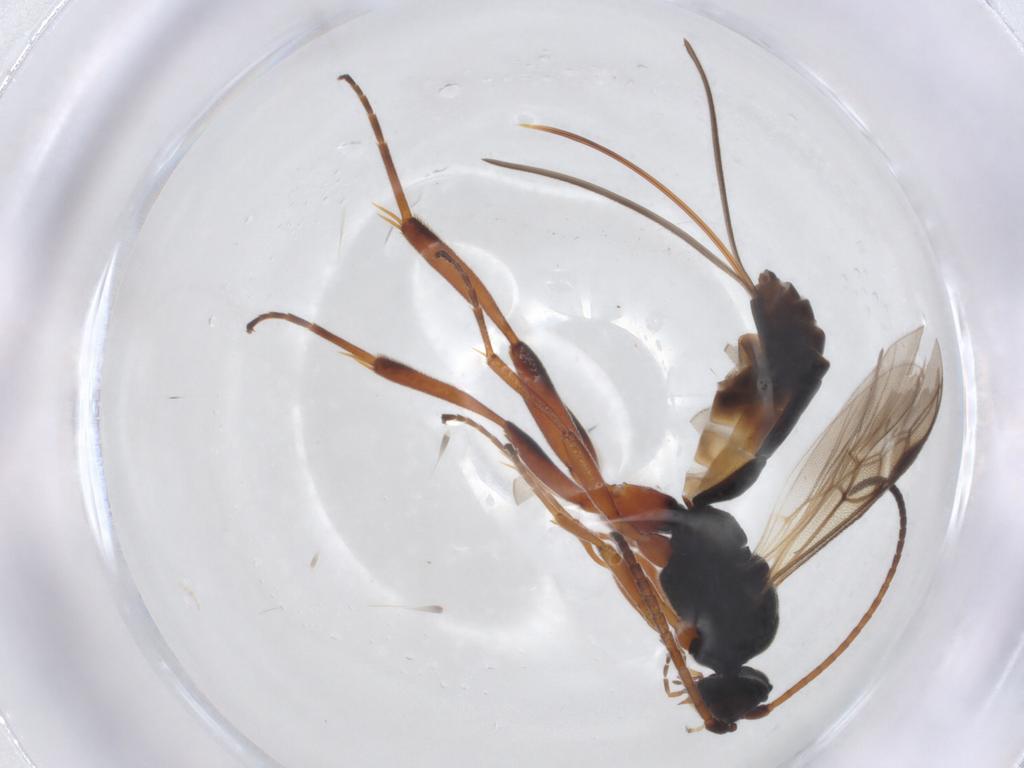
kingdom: Animalia
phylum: Arthropoda
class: Insecta
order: Hymenoptera
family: Braconidae
